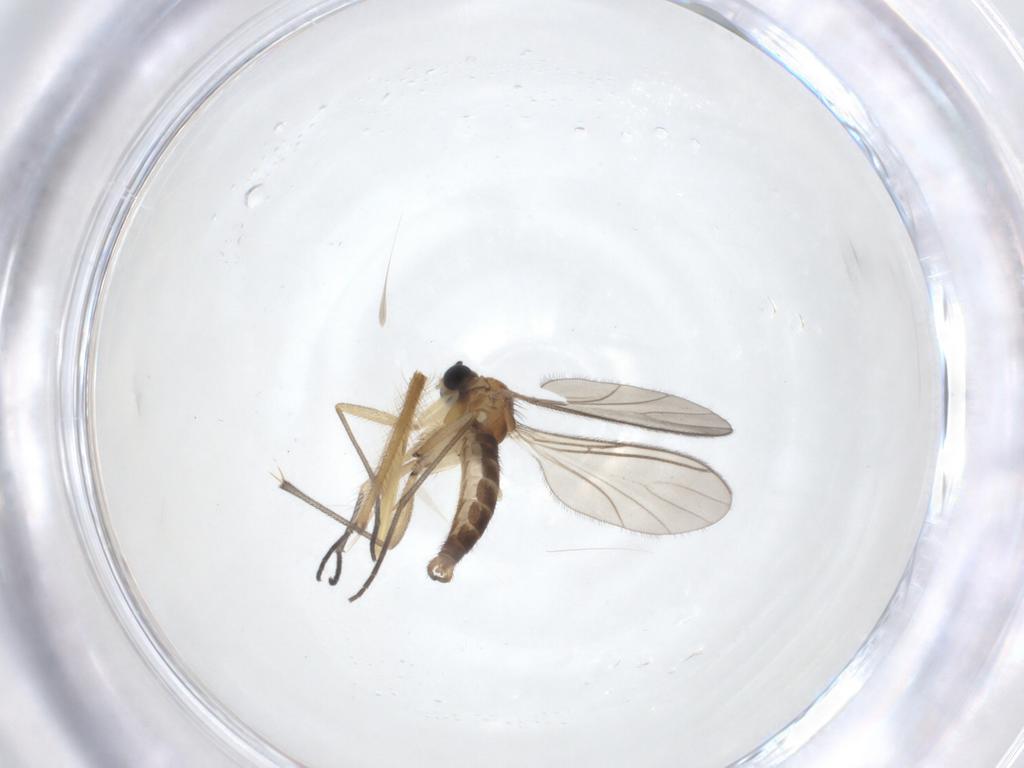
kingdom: Animalia
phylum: Arthropoda
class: Insecta
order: Diptera
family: Sciaridae
